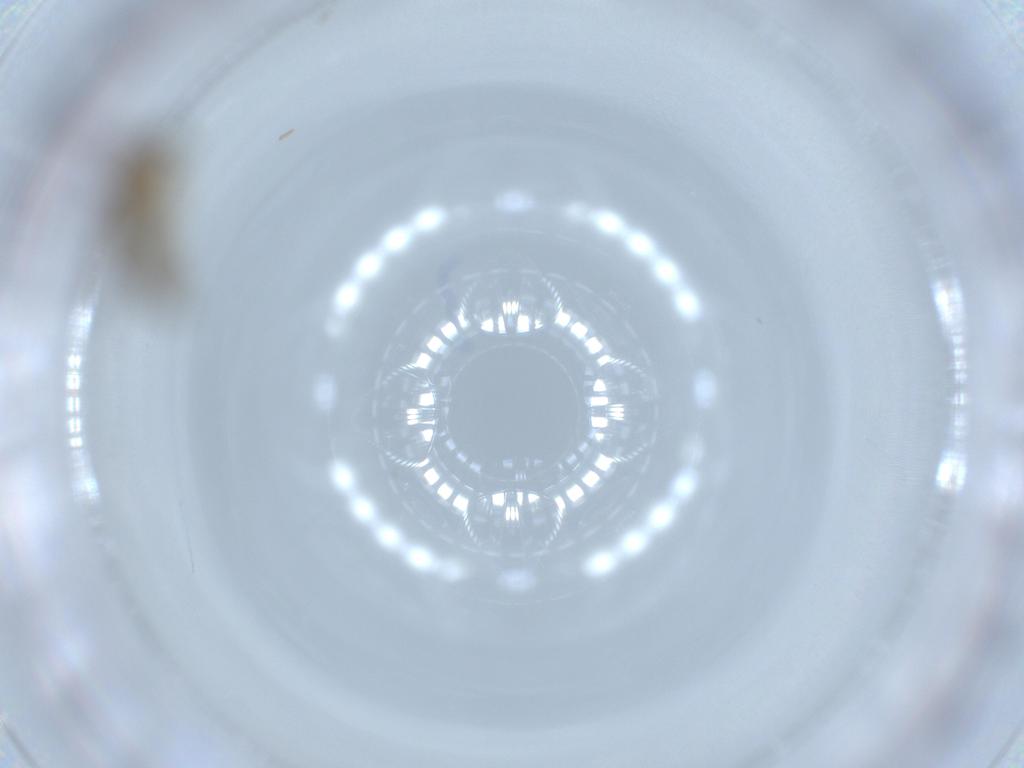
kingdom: Animalia
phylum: Arthropoda
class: Insecta
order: Diptera
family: Chironomidae
